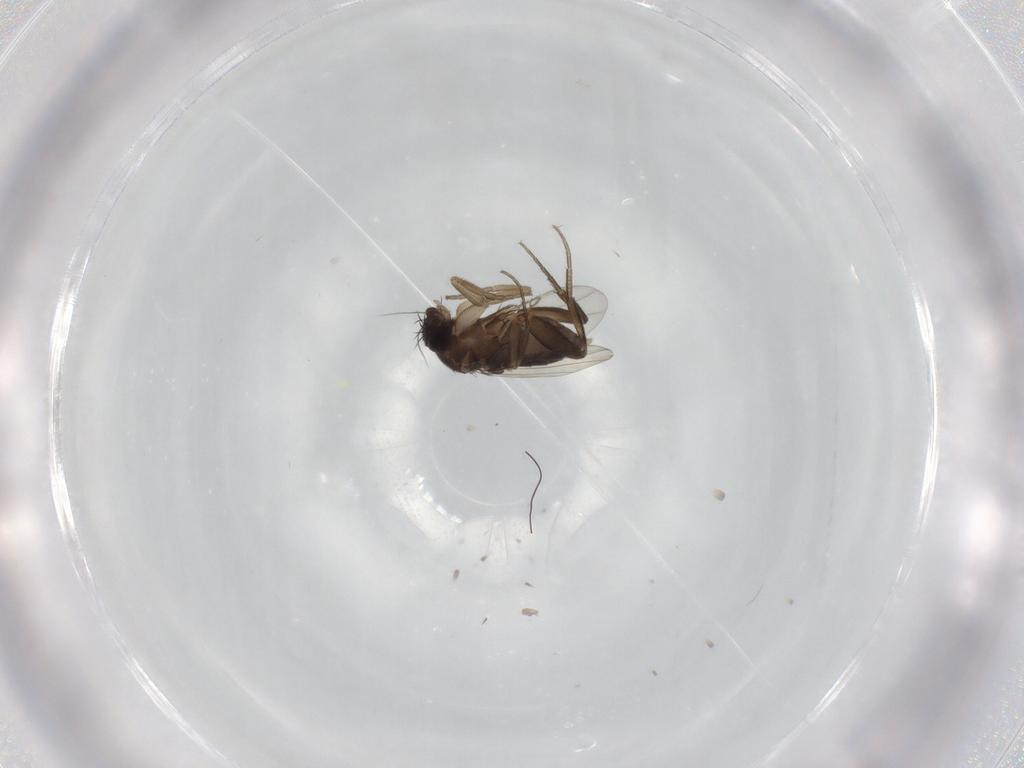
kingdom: Animalia
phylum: Arthropoda
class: Insecta
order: Diptera
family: Phoridae
